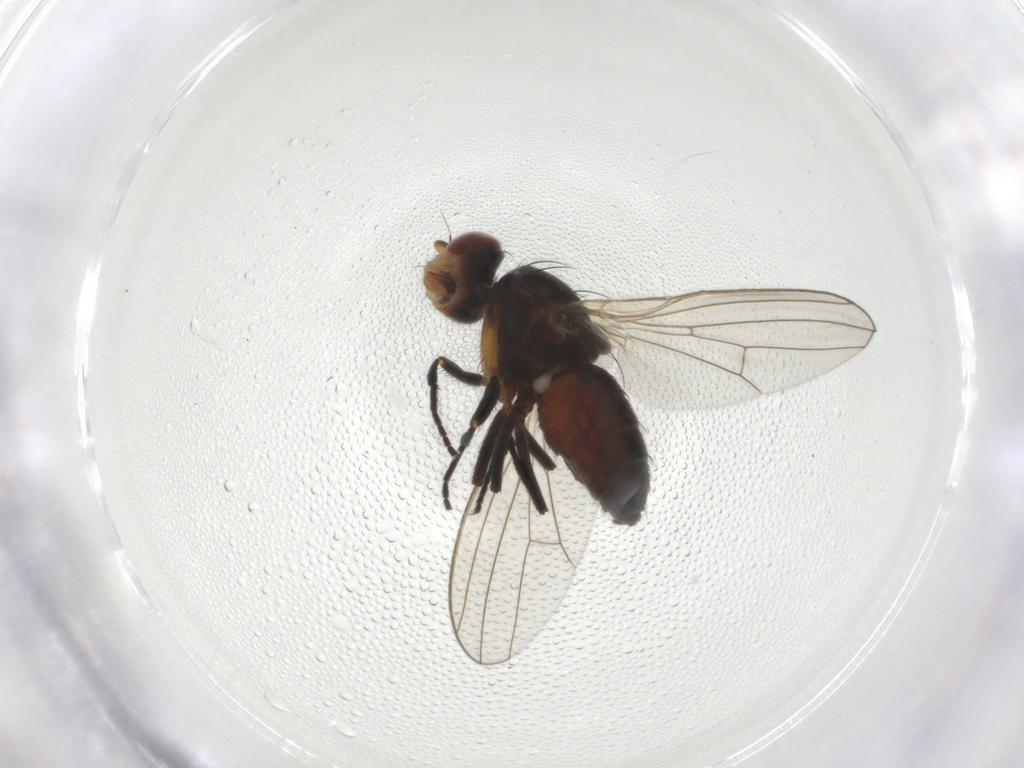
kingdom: Animalia
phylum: Arthropoda
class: Insecta
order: Diptera
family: Canacidae
